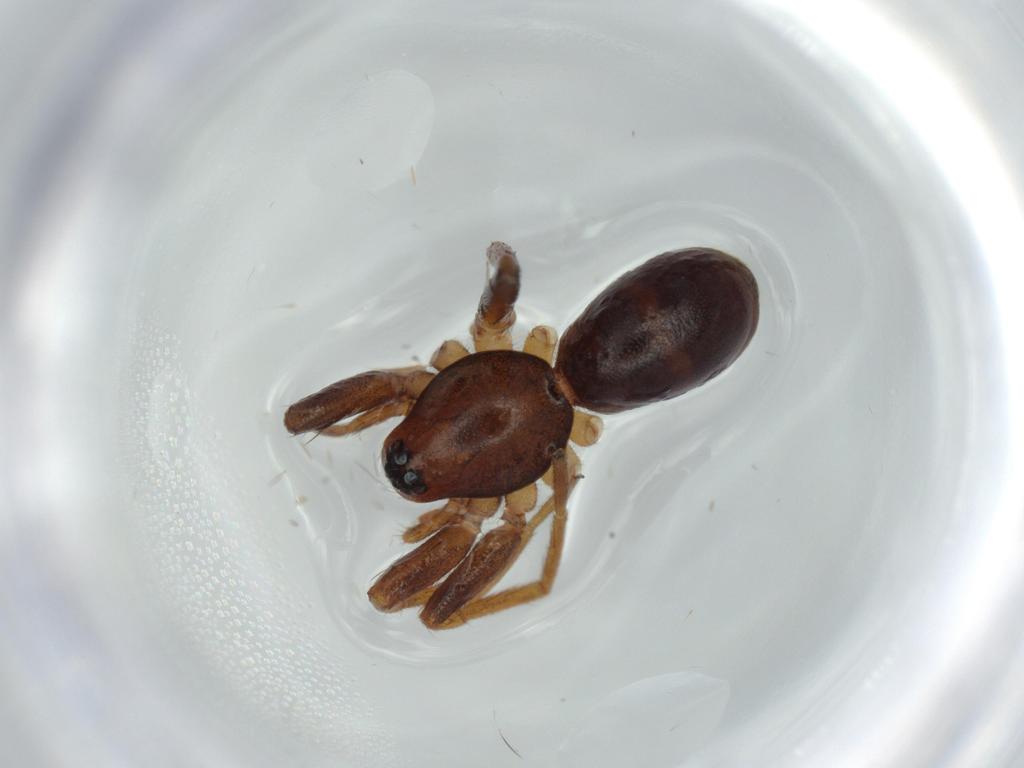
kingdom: Animalia
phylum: Arthropoda
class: Arachnida
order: Araneae
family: Corinnidae
